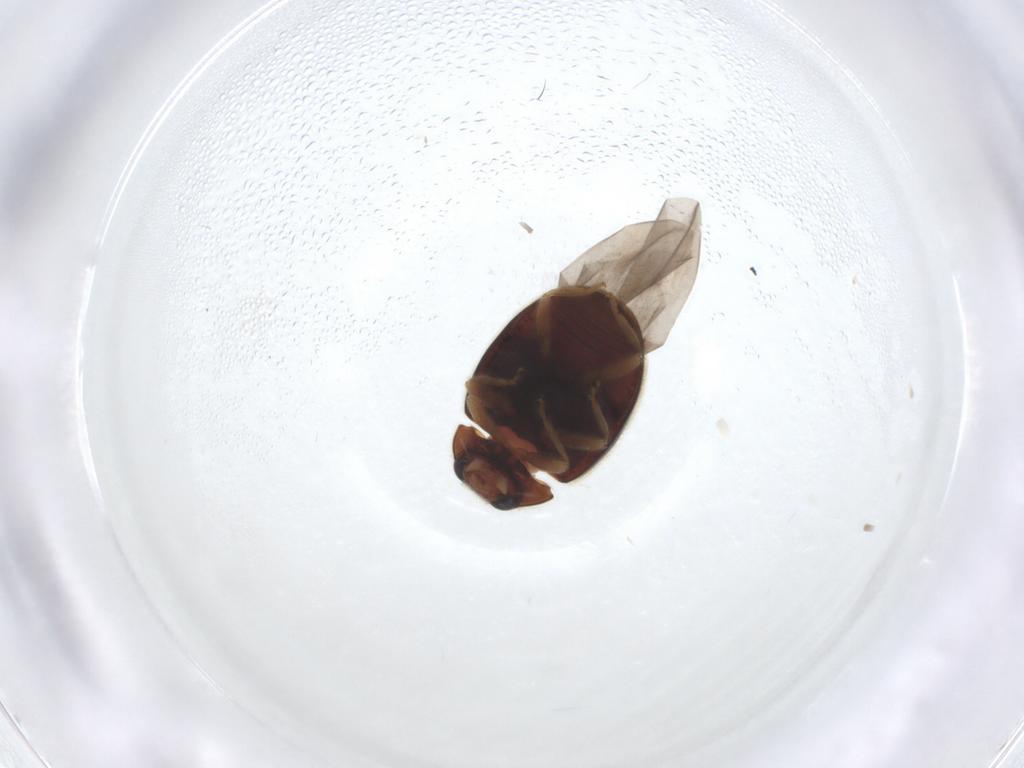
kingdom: Animalia
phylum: Arthropoda
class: Insecta
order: Coleoptera
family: Coccinellidae
